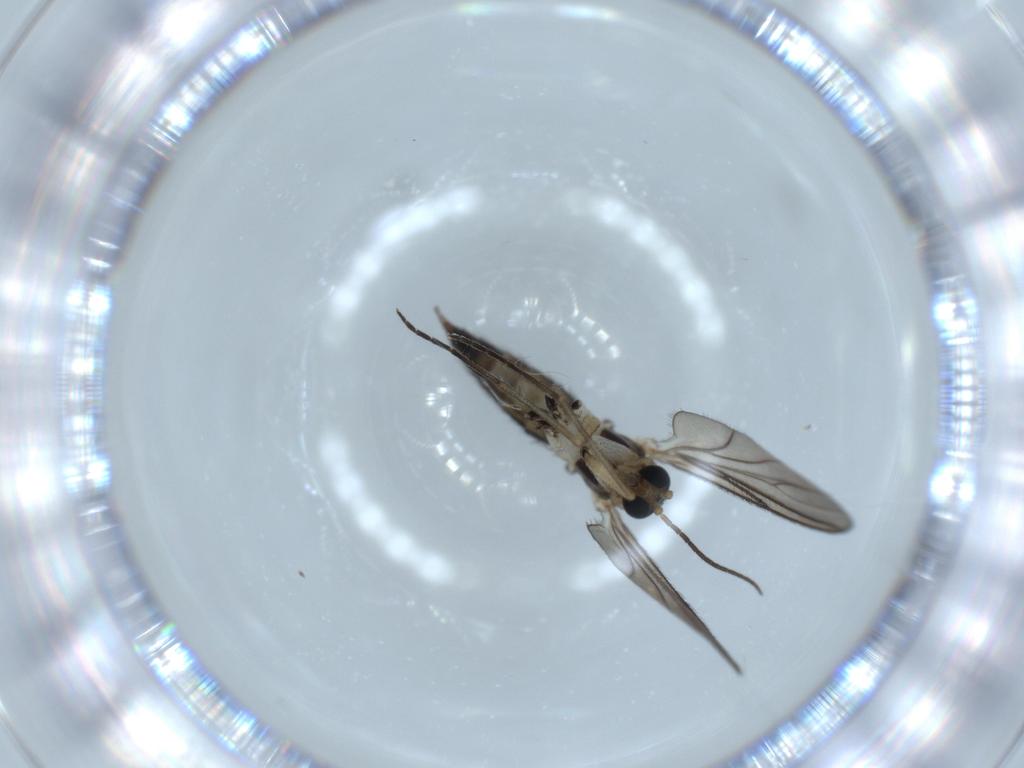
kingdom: Animalia
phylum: Arthropoda
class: Insecta
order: Diptera
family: Sciaridae
